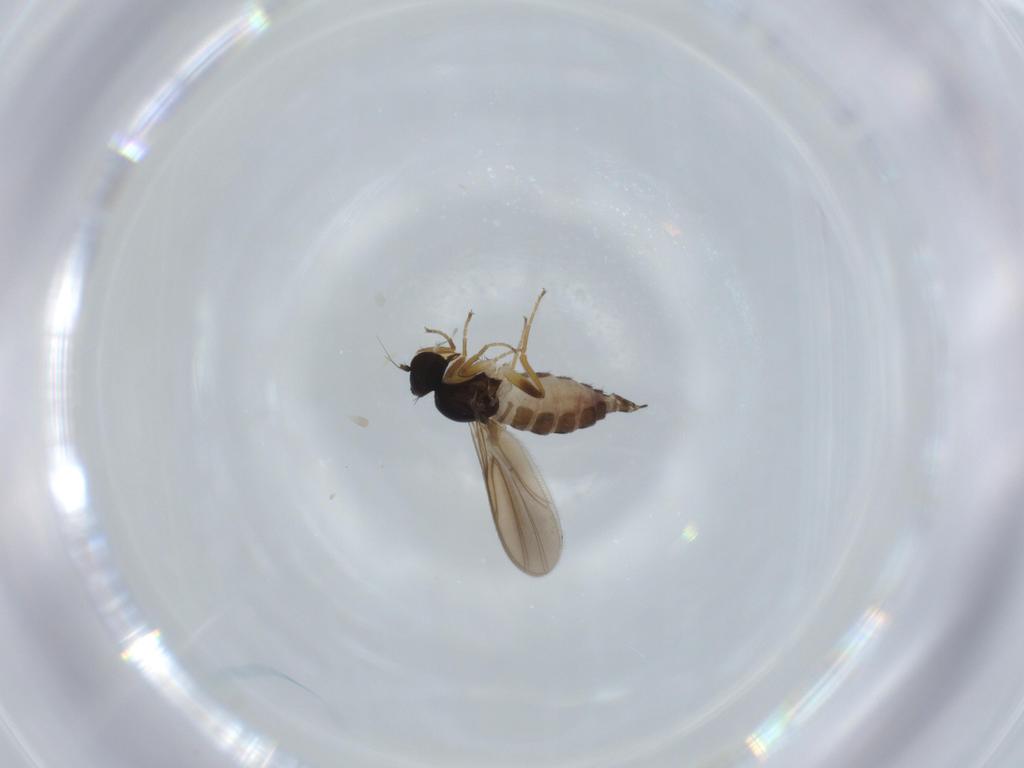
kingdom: Animalia
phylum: Arthropoda
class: Insecta
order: Diptera
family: Hybotidae
